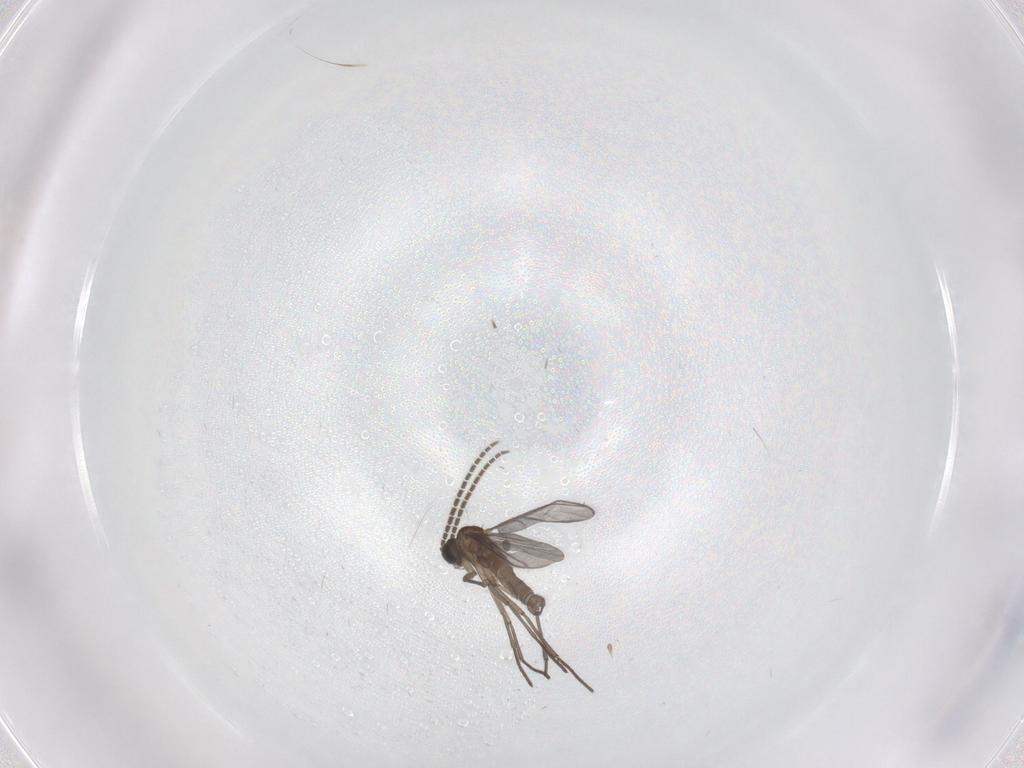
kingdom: Animalia
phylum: Arthropoda
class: Insecta
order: Diptera
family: Sciaridae
